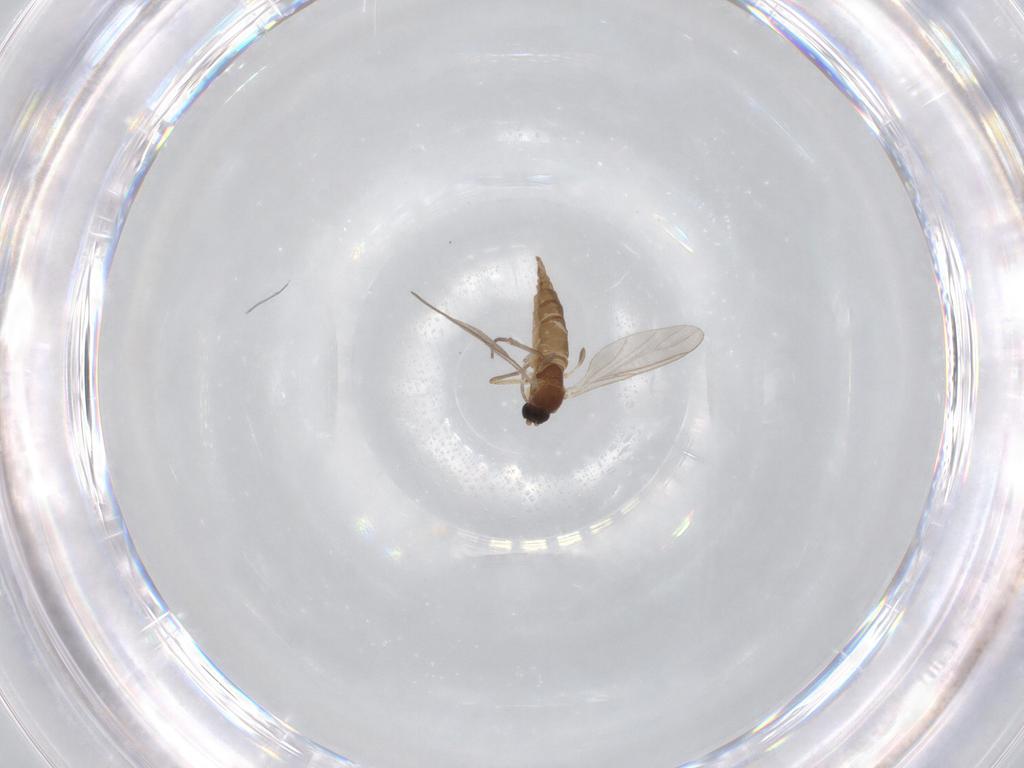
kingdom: Animalia
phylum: Arthropoda
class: Insecta
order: Diptera
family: Sciaridae
